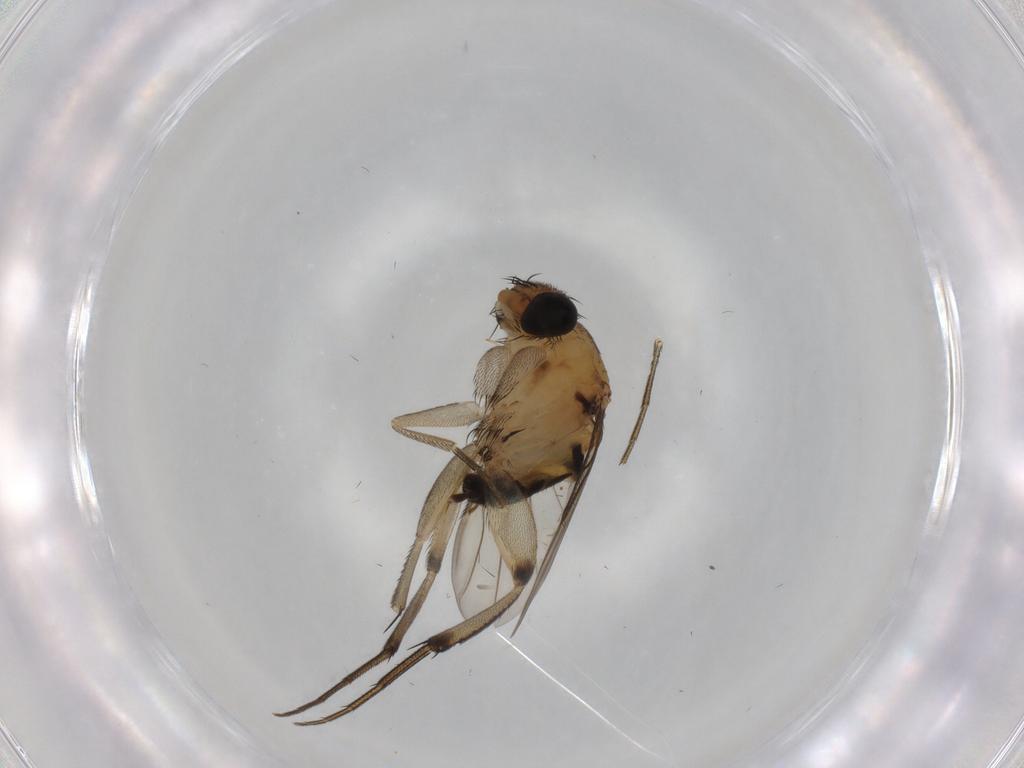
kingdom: Animalia
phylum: Arthropoda
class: Insecta
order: Diptera
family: Phoridae
